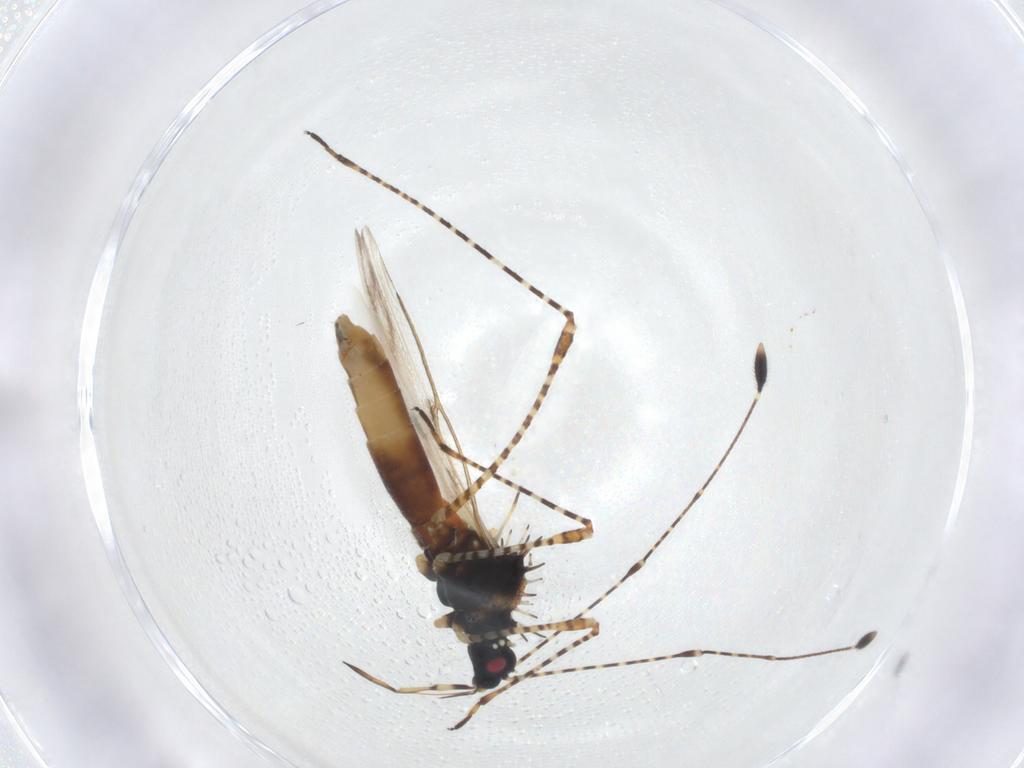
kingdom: Animalia
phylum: Arthropoda
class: Insecta
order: Hemiptera
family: Berytidae
